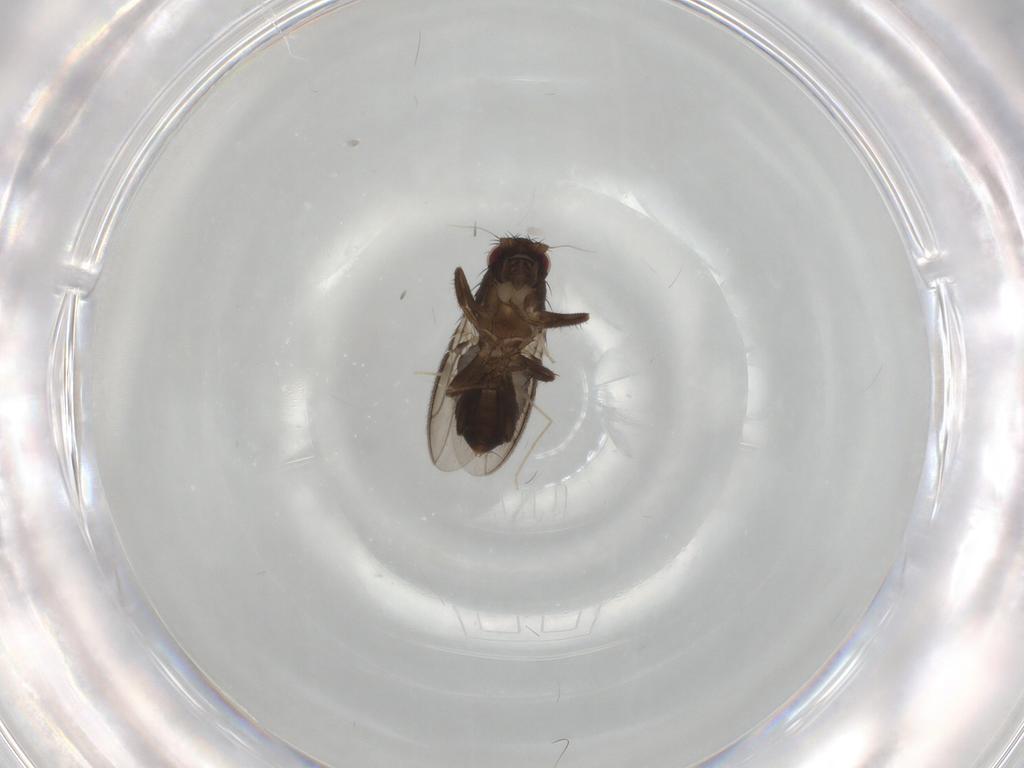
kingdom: Animalia
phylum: Arthropoda
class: Insecta
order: Diptera
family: Chironomidae
